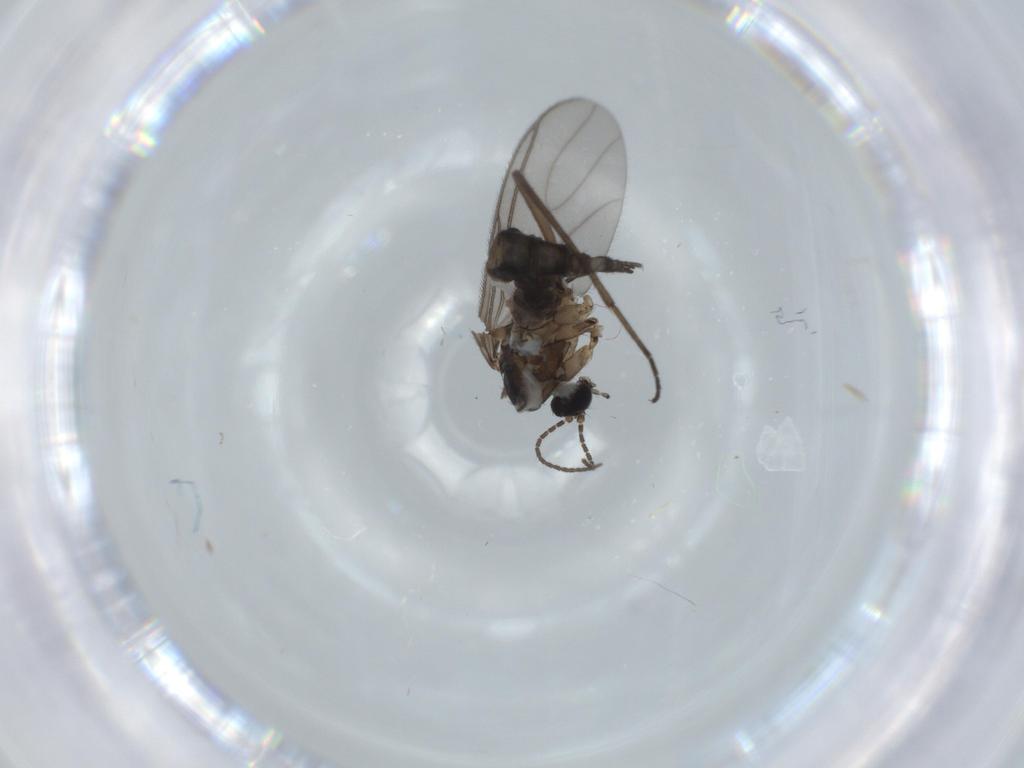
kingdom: Animalia
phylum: Arthropoda
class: Insecta
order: Diptera
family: Sciaridae
